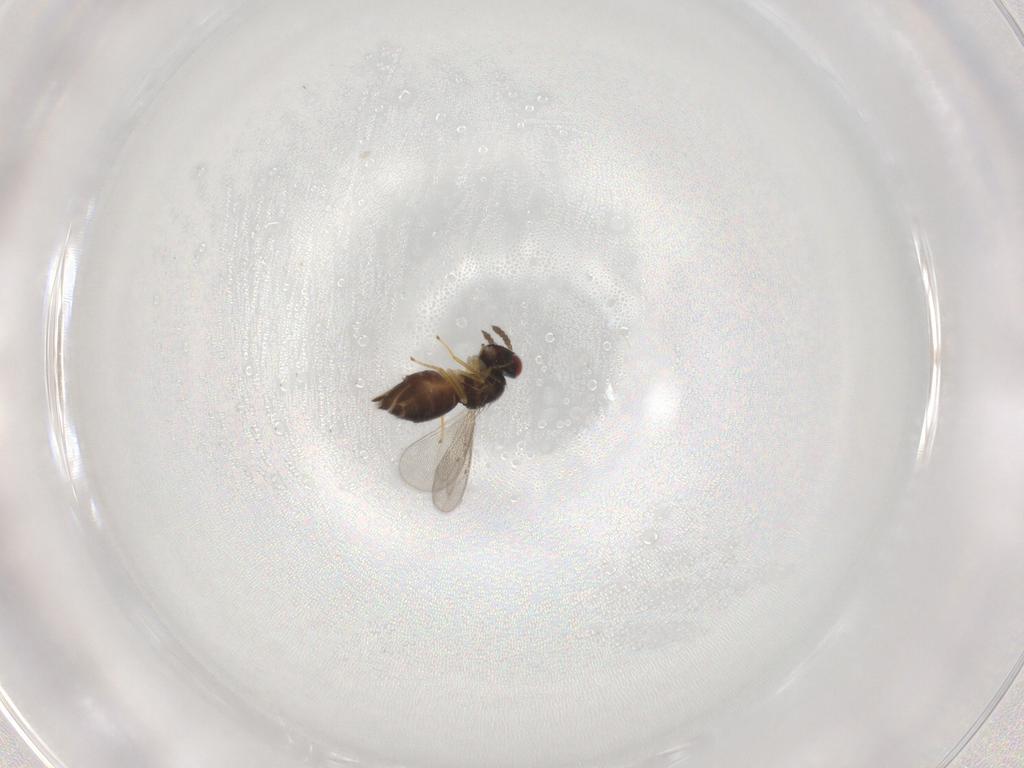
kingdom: Animalia
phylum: Arthropoda
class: Insecta
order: Hymenoptera
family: Eulophidae
